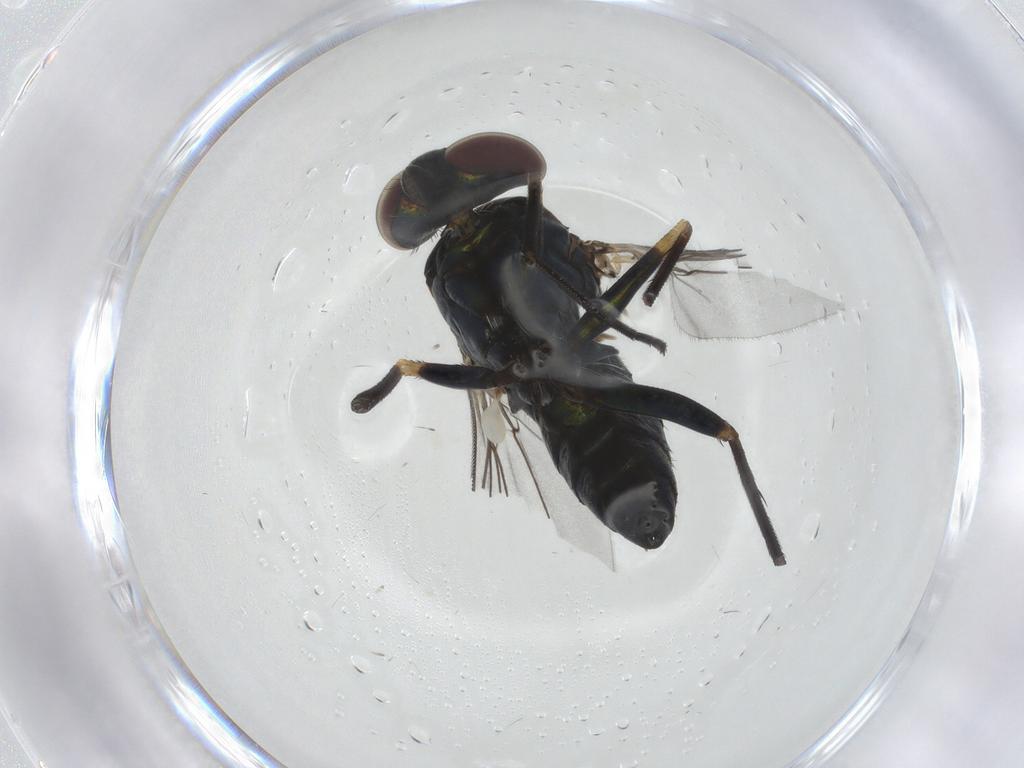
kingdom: Animalia
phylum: Arthropoda
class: Insecta
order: Diptera
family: Dolichopodidae
